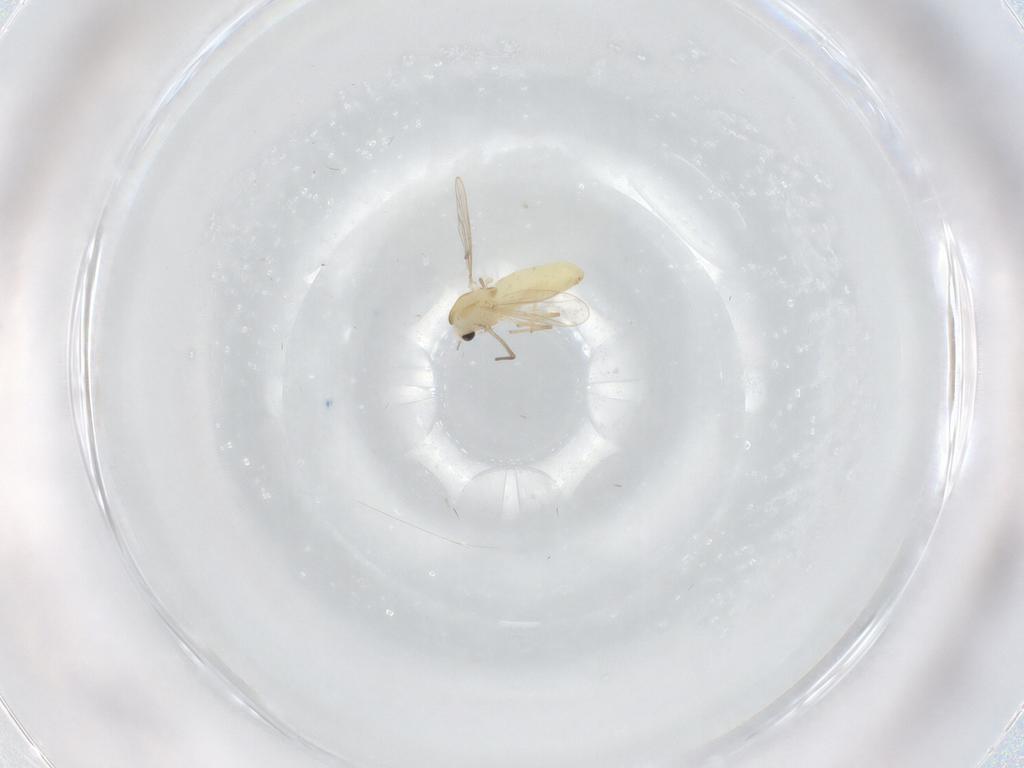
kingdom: Animalia
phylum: Arthropoda
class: Insecta
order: Diptera
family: Chironomidae
